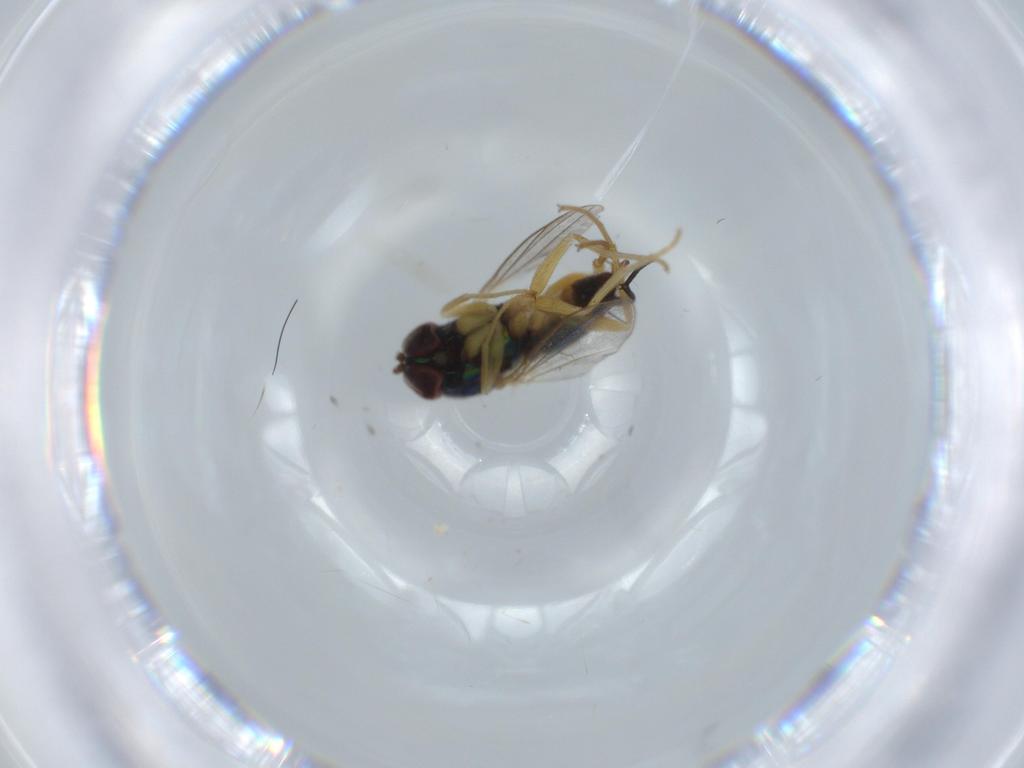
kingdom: Animalia
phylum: Arthropoda
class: Insecta
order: Diptera
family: Dolichopodidae
